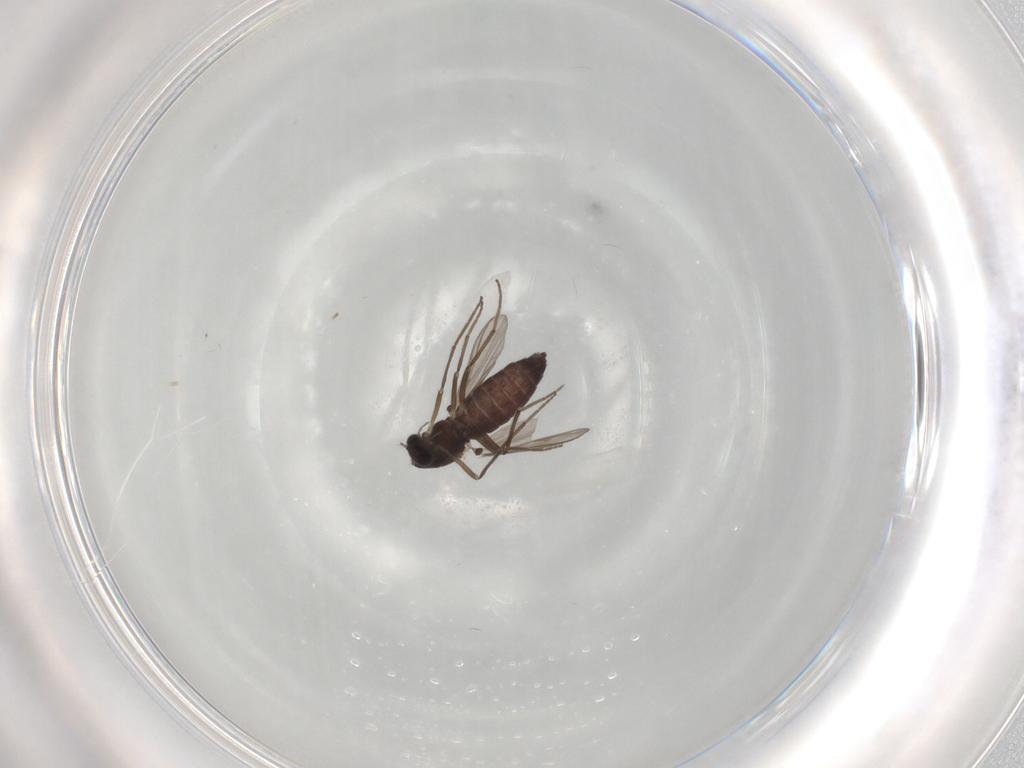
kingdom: Animalia
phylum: Arthropoda
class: Insecta
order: Diptera
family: Chironomidae
